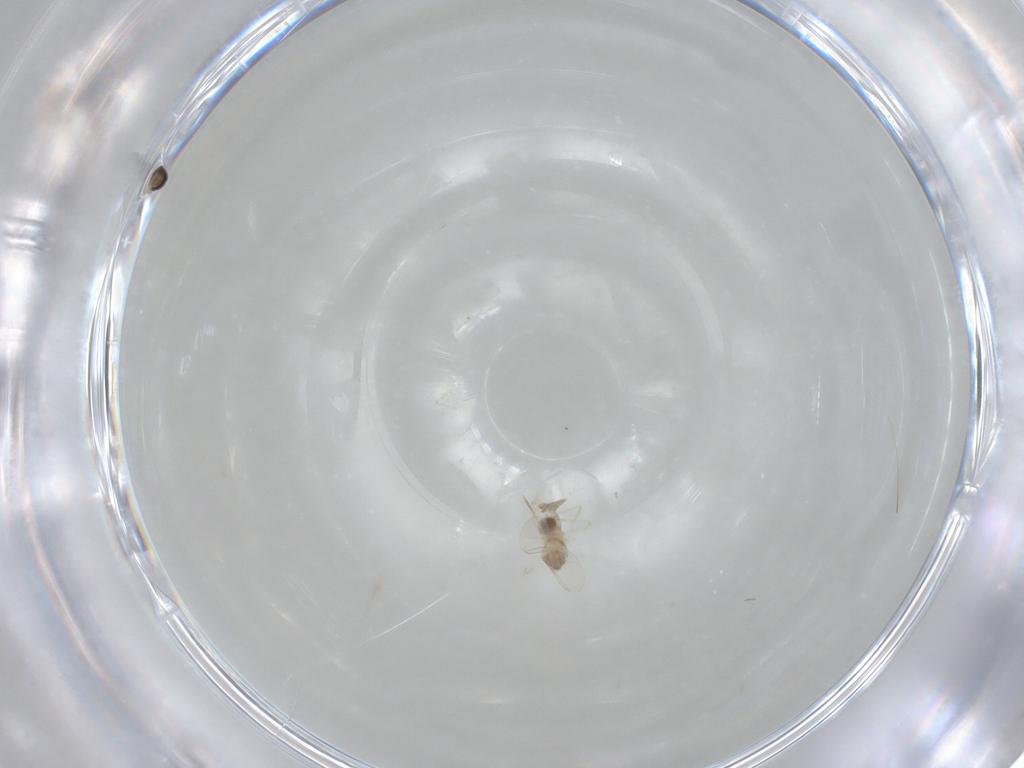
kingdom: Animalia
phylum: Arthropoda
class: Insecta
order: Diptera
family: Cecidomyiidae
